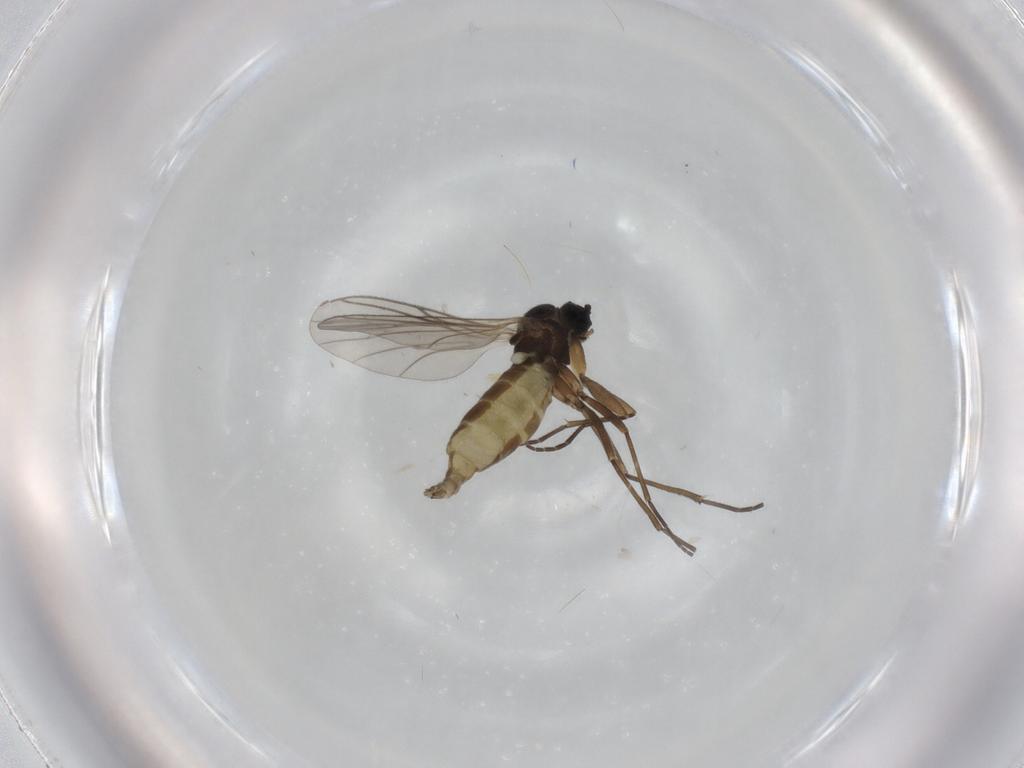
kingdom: Animalia
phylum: Arthropoda
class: Insecta
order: Diptera
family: Sciaridae
